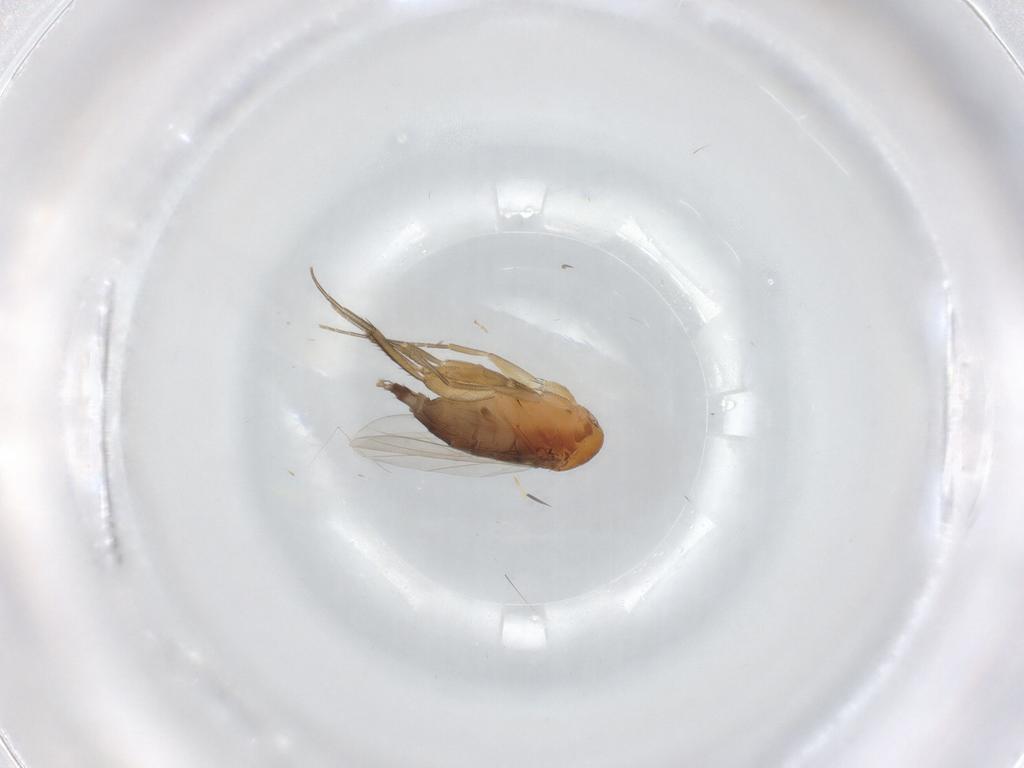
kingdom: Animalia
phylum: Arthropoda
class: Insecta
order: Diptera
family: Phoridae
